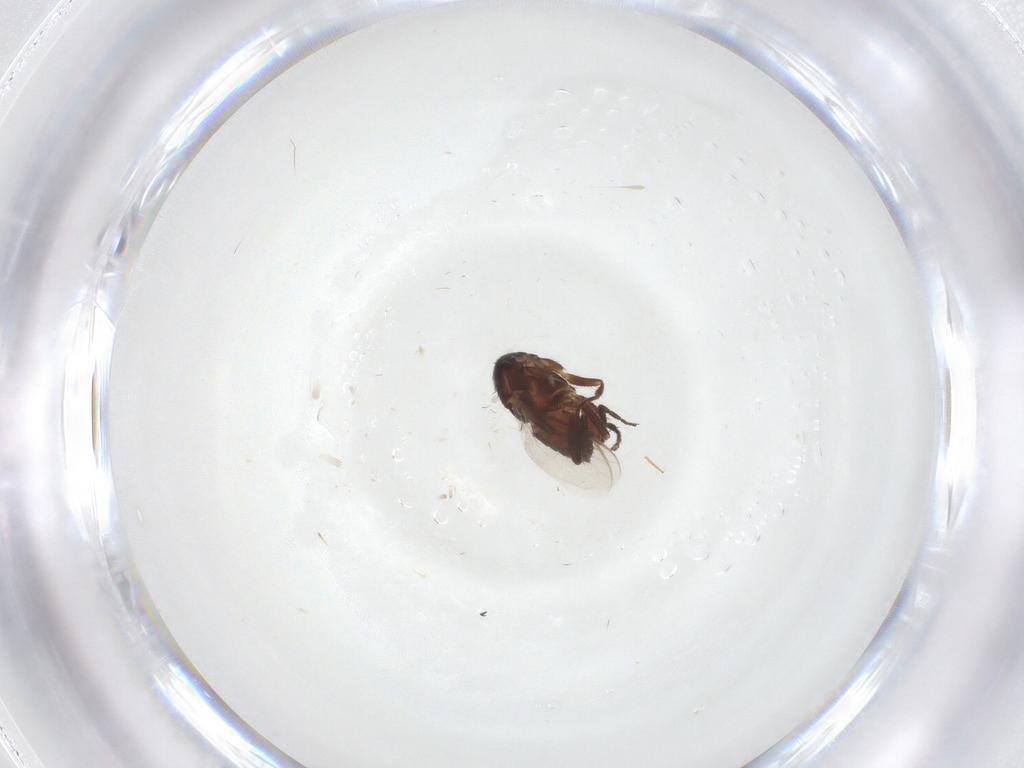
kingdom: Animalia
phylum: Arthropoda
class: Insecta
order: Diptera
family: Sphaeroceridae
